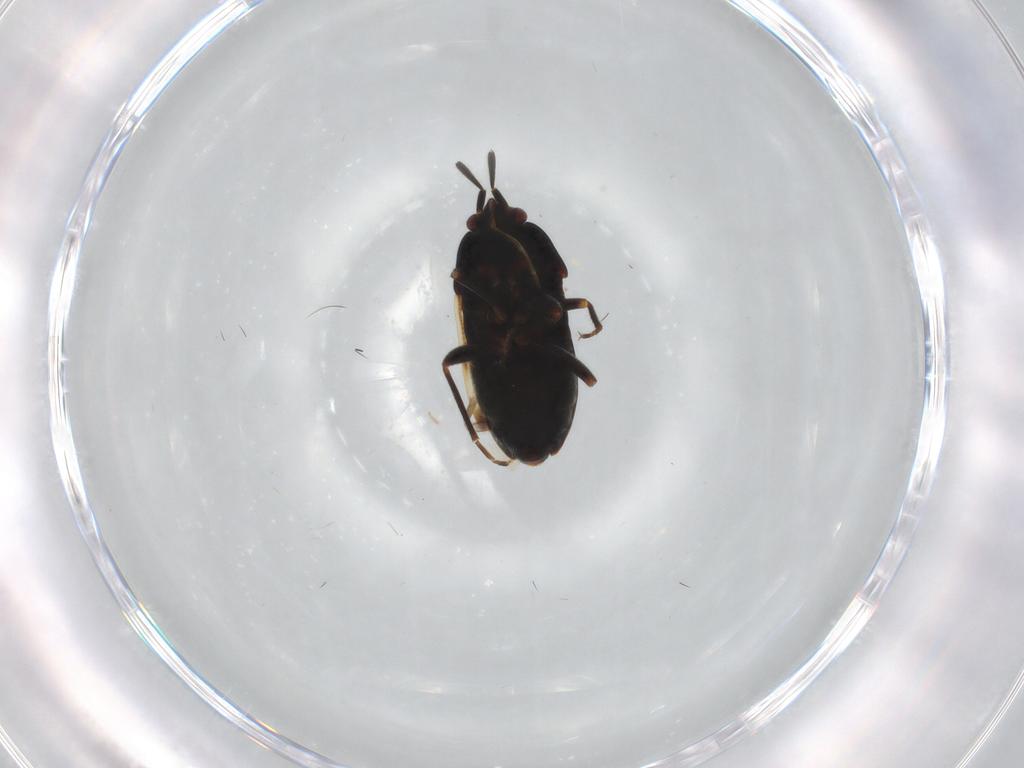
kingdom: Animalia
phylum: Arthropoda
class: Insecta
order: Hemiptera
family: Rhyparochromidae
